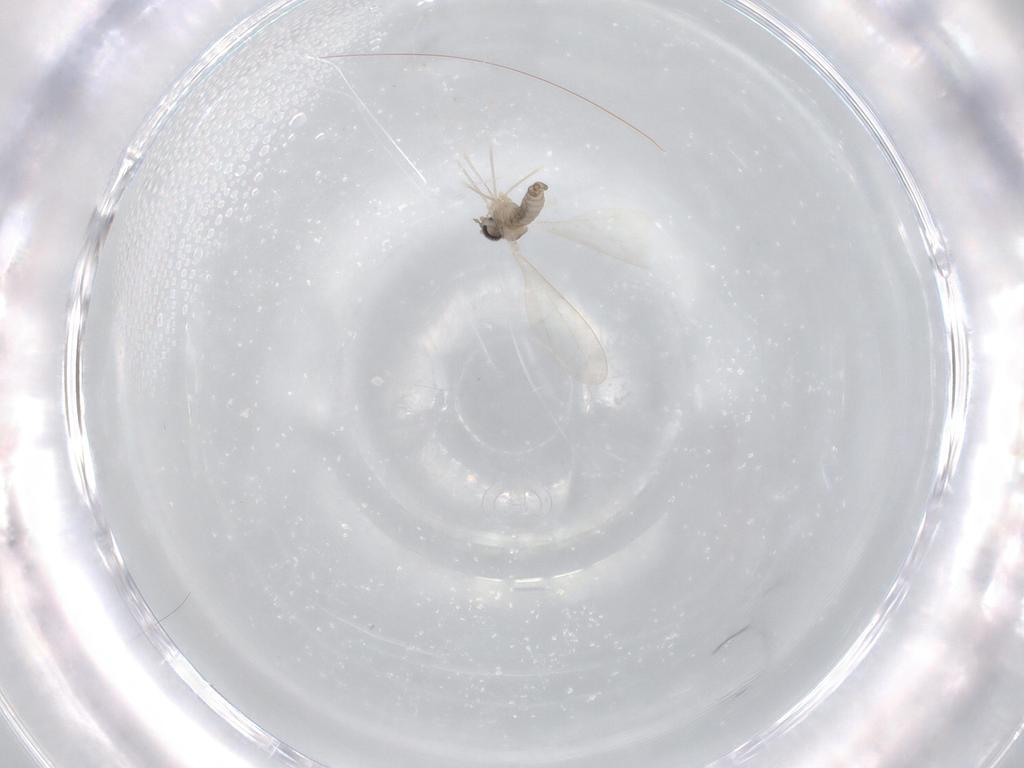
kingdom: Animalia
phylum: Arthropoda
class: Insecta
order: Diptera
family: Cecidomyiidae
